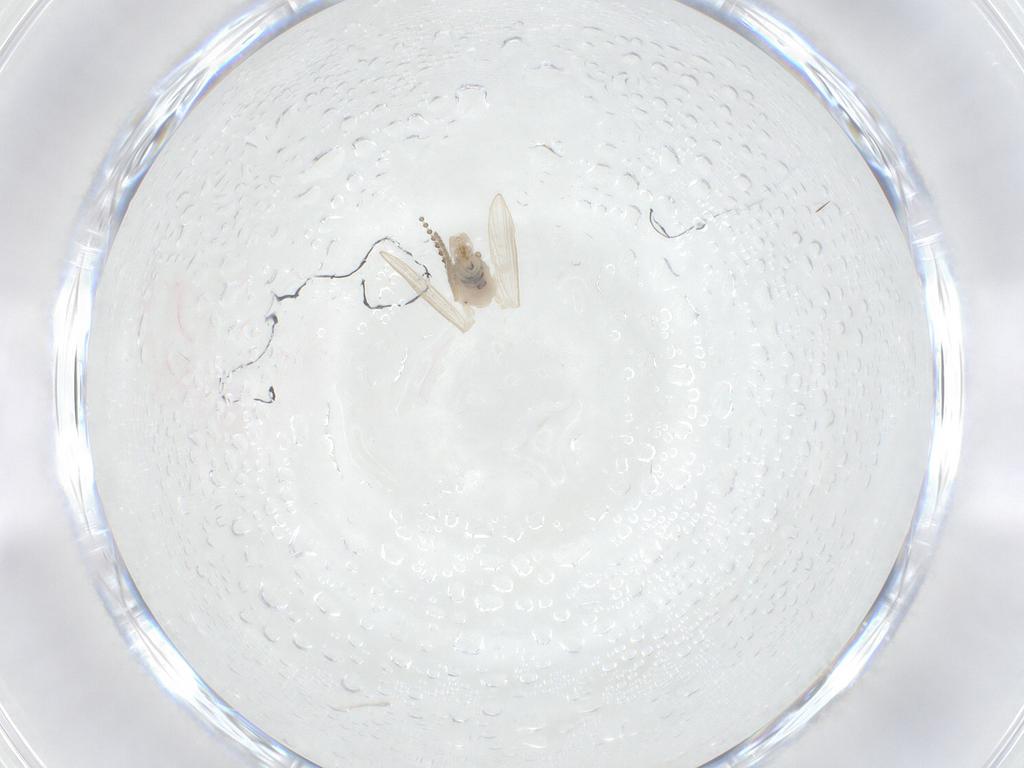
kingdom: Animalia
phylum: Arthropoda
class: Insecta
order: Diptera
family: Psychodidae
